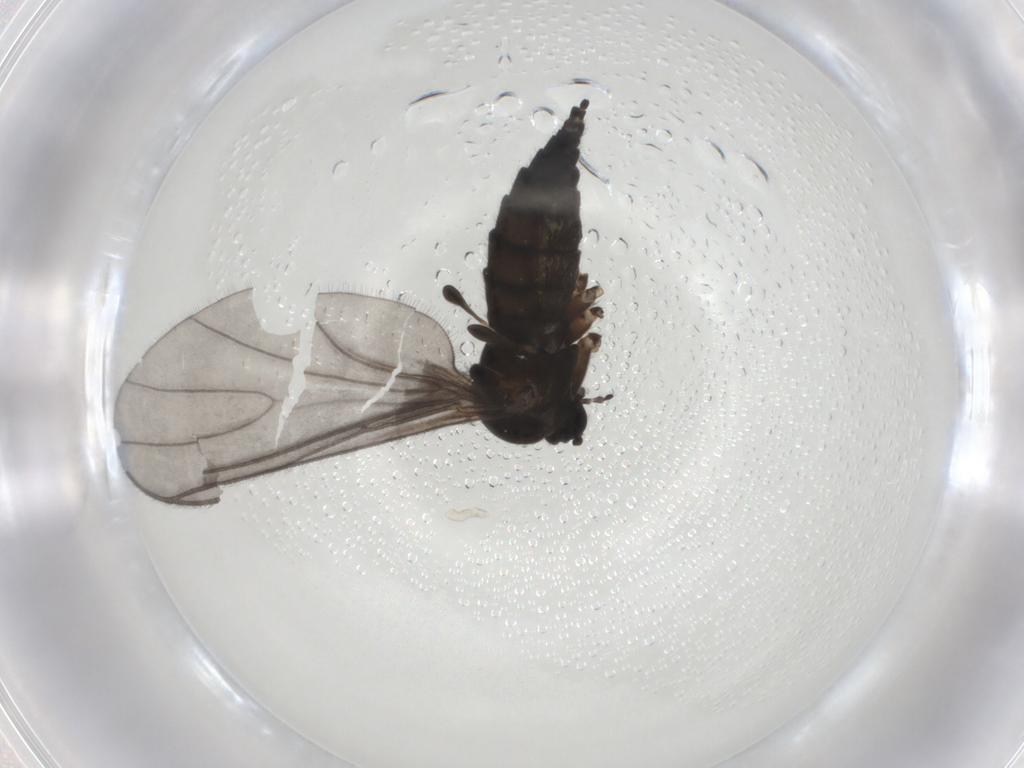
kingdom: Animalia
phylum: Arthropoda
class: Insecta
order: Diptera
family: Sciaridae
